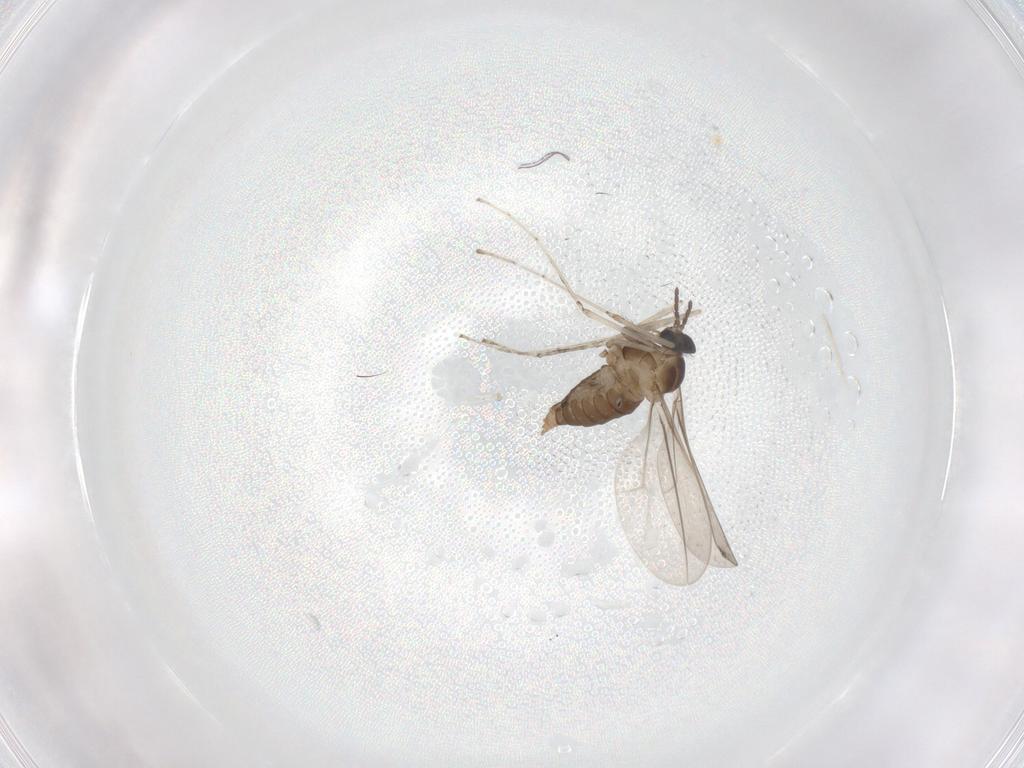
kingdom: Animalia
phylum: Arthropoda
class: Insecta
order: Diptera
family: Cecidomyiidae
